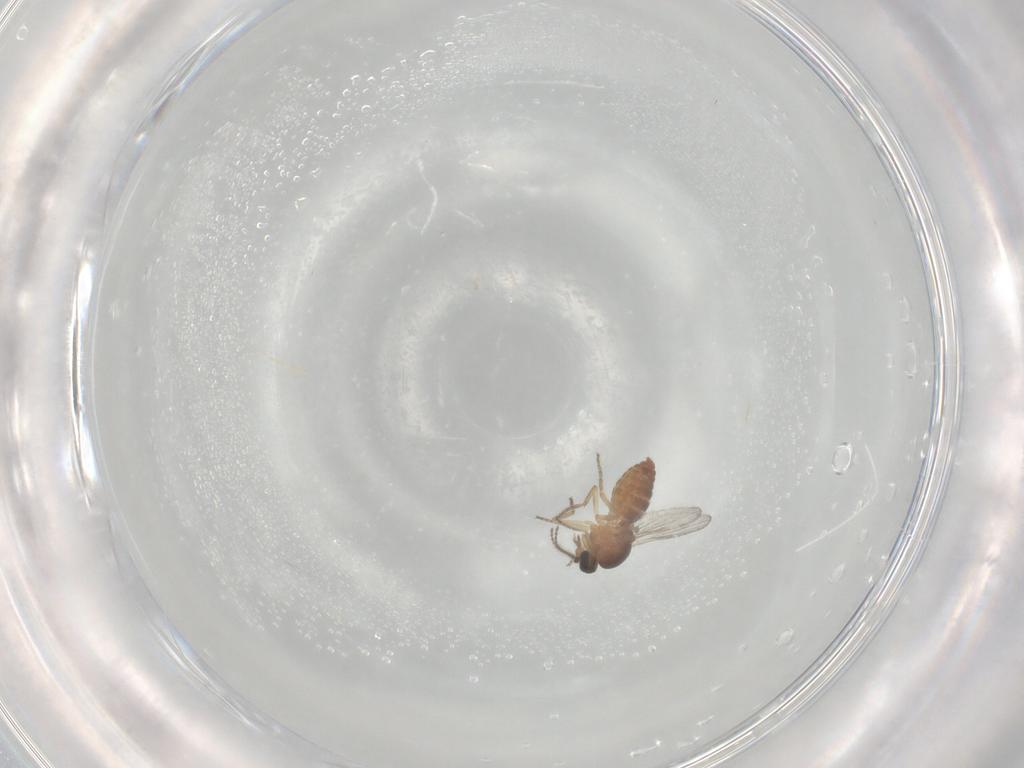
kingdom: Animalia
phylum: Arthropoda
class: Insecta
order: Diptera
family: Ceratopogonidae
